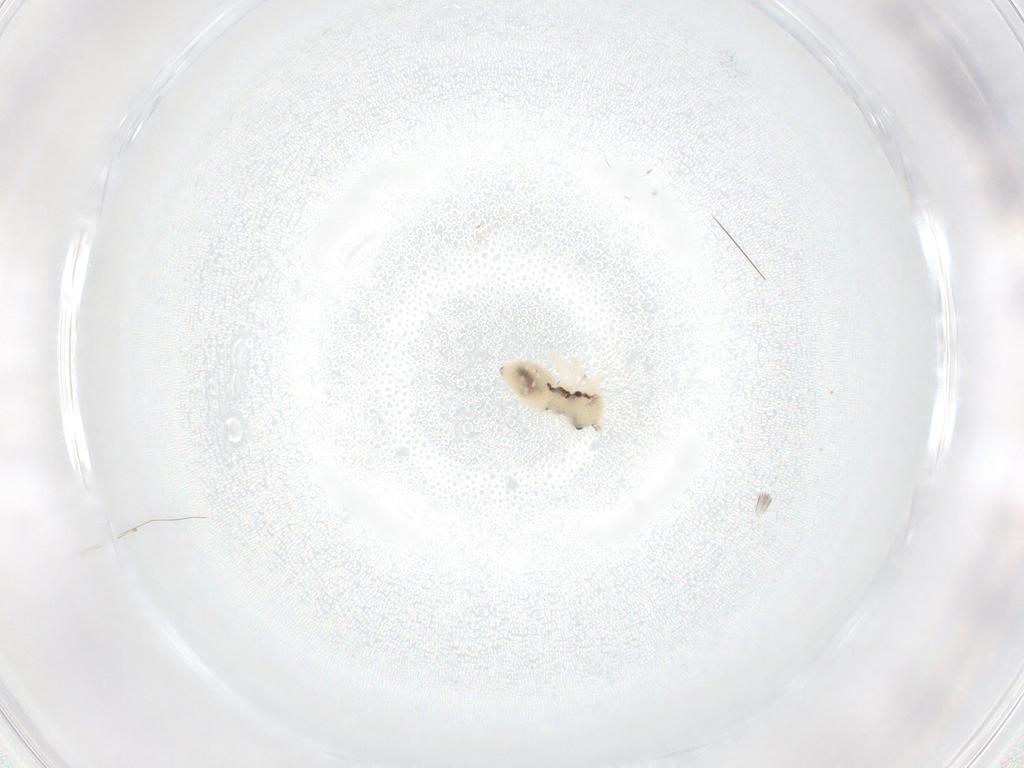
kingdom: Animalia
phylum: Arthropoda
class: Insecta
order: Psocodea
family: Philotarsidae
